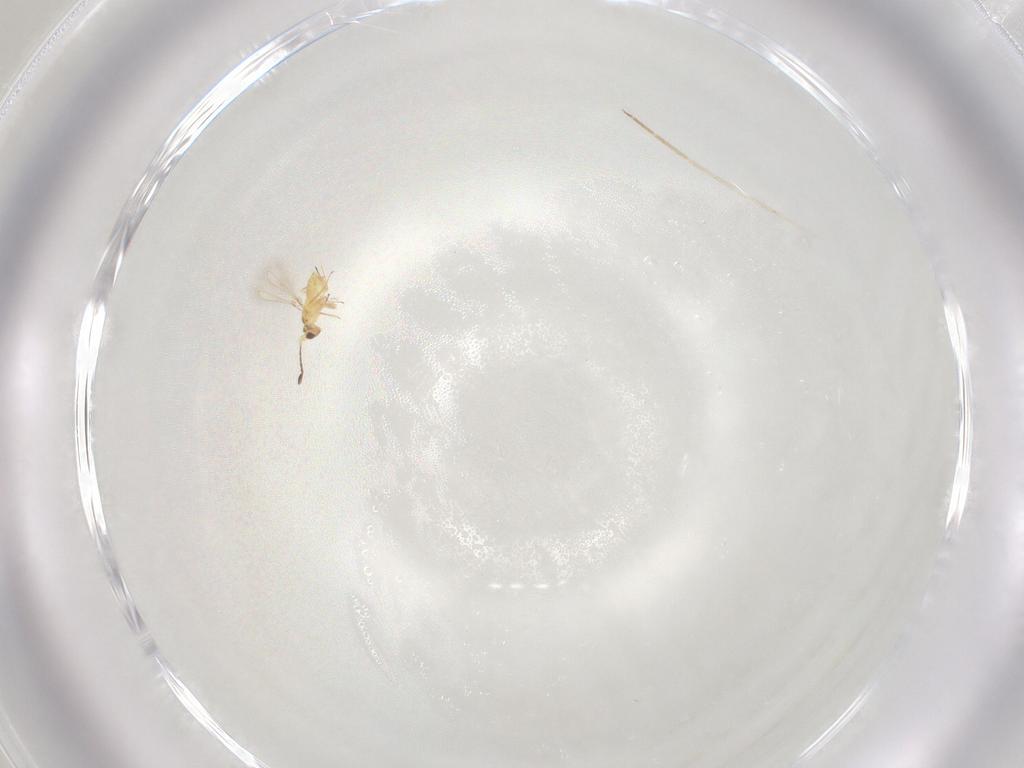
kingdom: Animalia
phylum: Arthropoda
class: Insecta
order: Hymenoptera
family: Mymaridae
